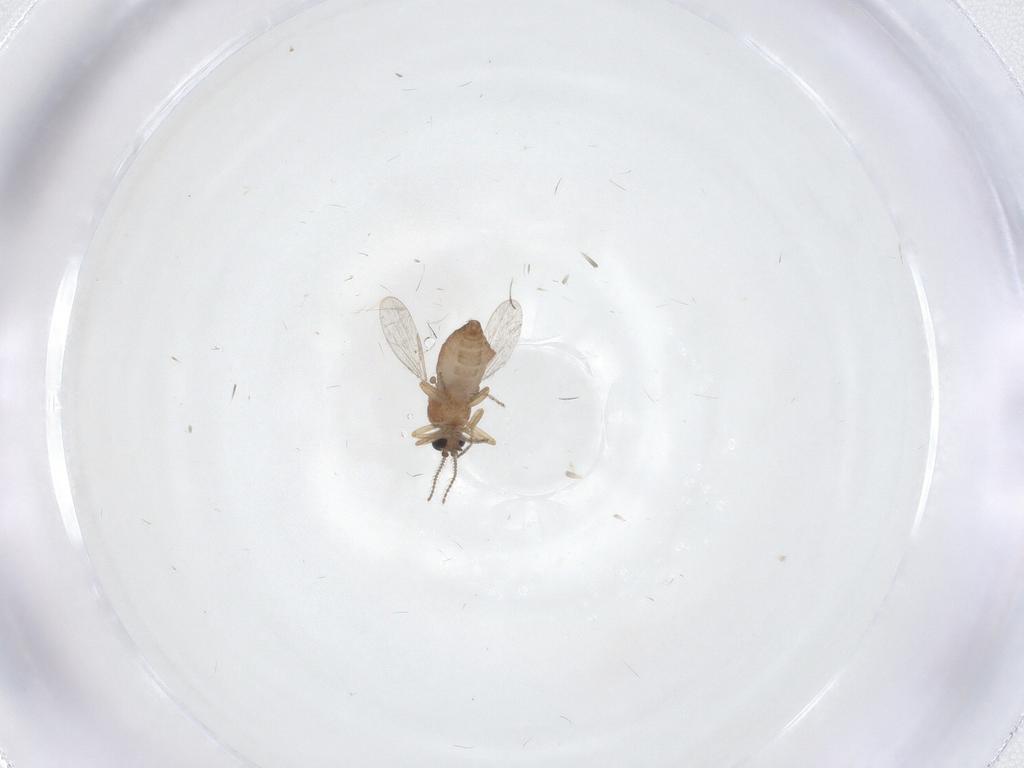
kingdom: Animalia
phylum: Arthropoda
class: Insecta
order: Diptera
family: Ceratopogonidae
